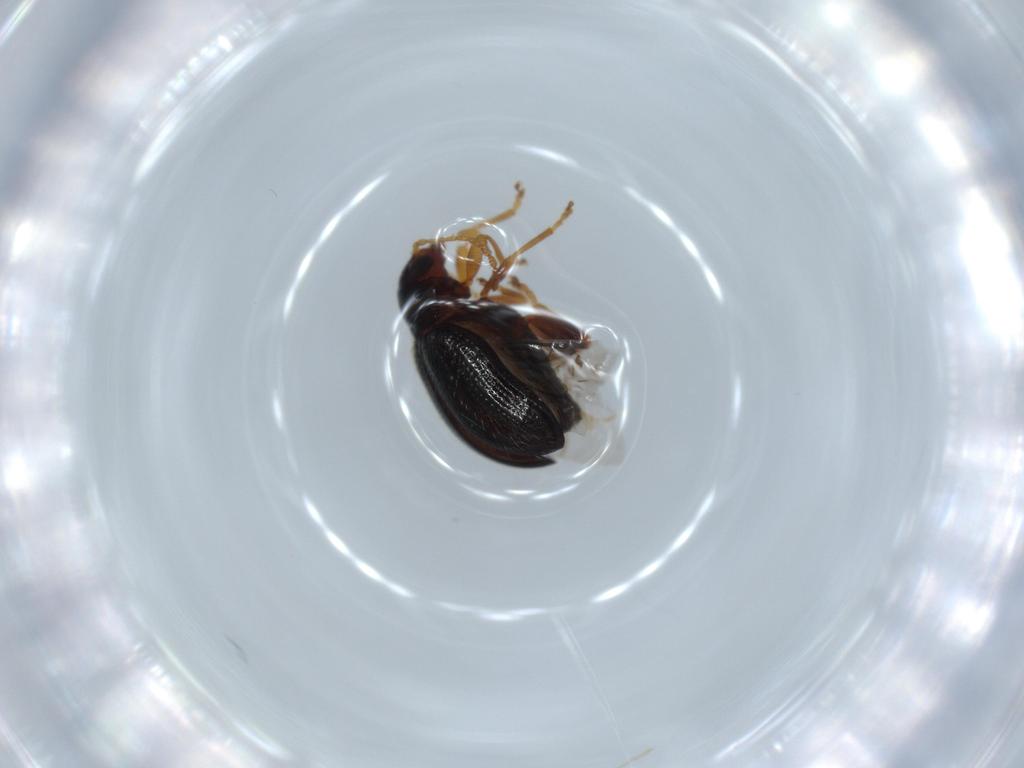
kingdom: Animalia
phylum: Arthropoda
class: Insecta
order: Coleoptera
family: Chrysomelidae
